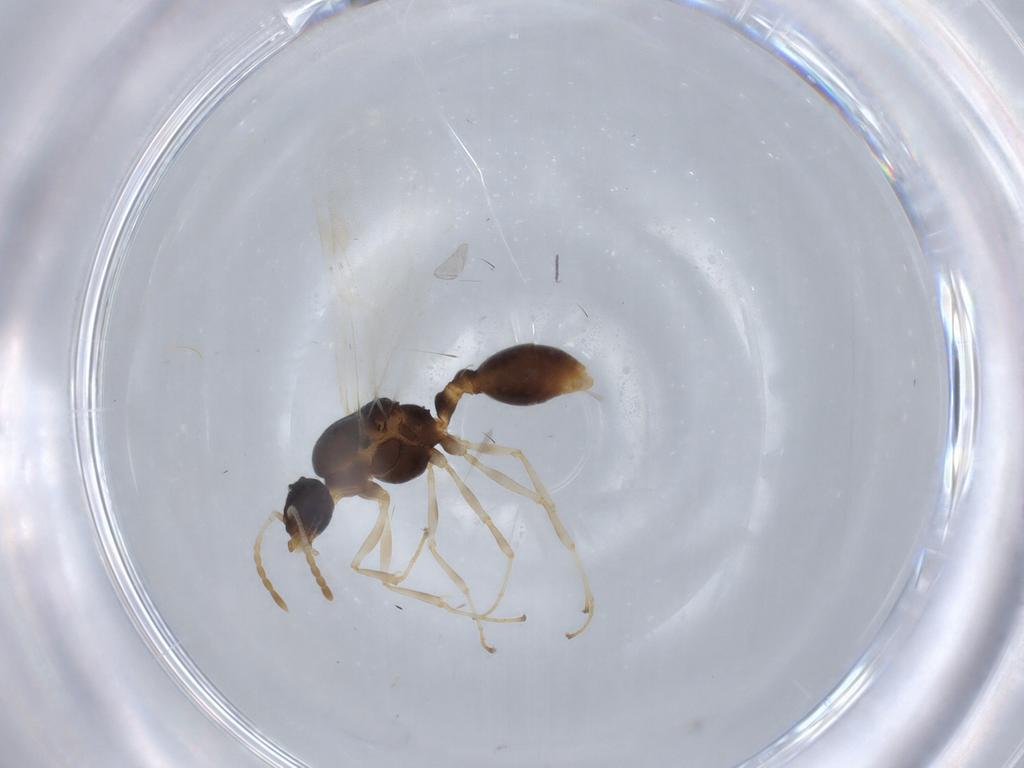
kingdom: Animalia
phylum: Arthropoda
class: Insecta
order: Hymenoptera
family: Formicidae
